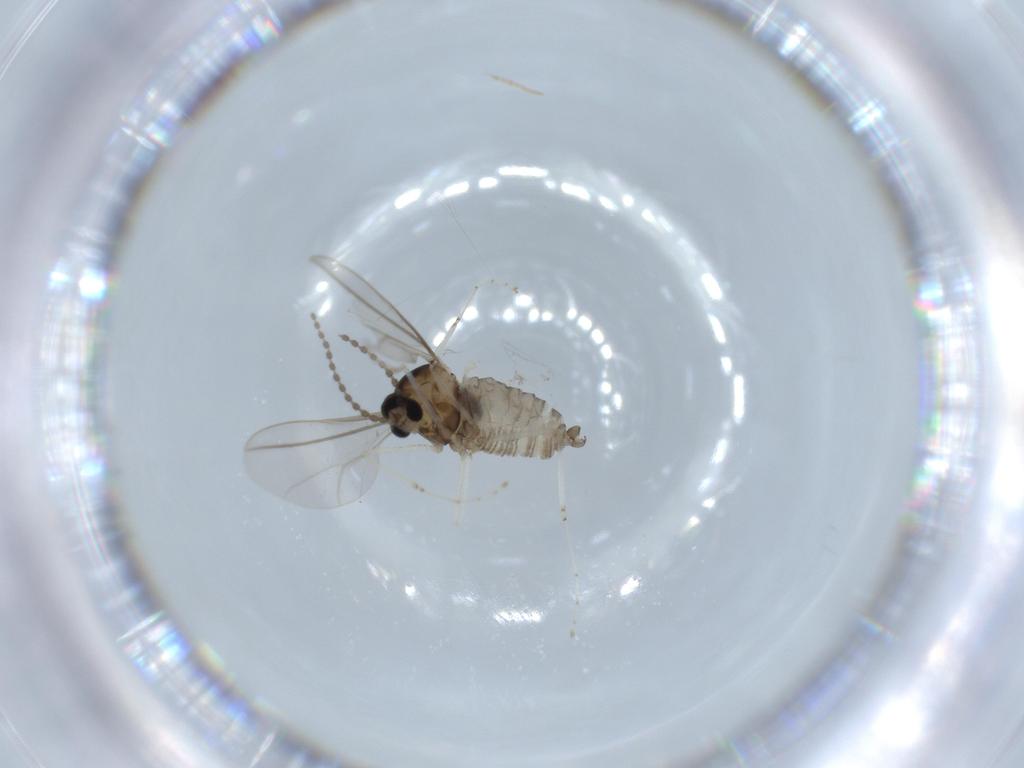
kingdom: Animalia
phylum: Arthropoda
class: Insecta
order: Diptera
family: Cecidomyiidae
